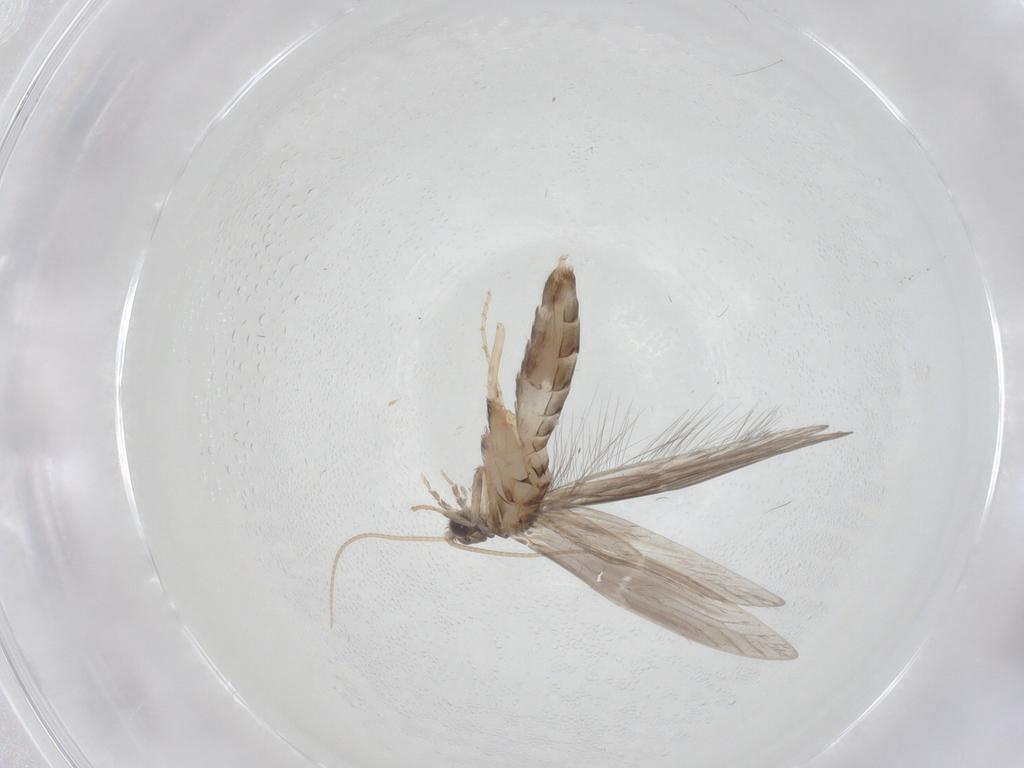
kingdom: Animalia
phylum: Arthropoda
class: Insecta
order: Trichoptera
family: Hydroptilidae
